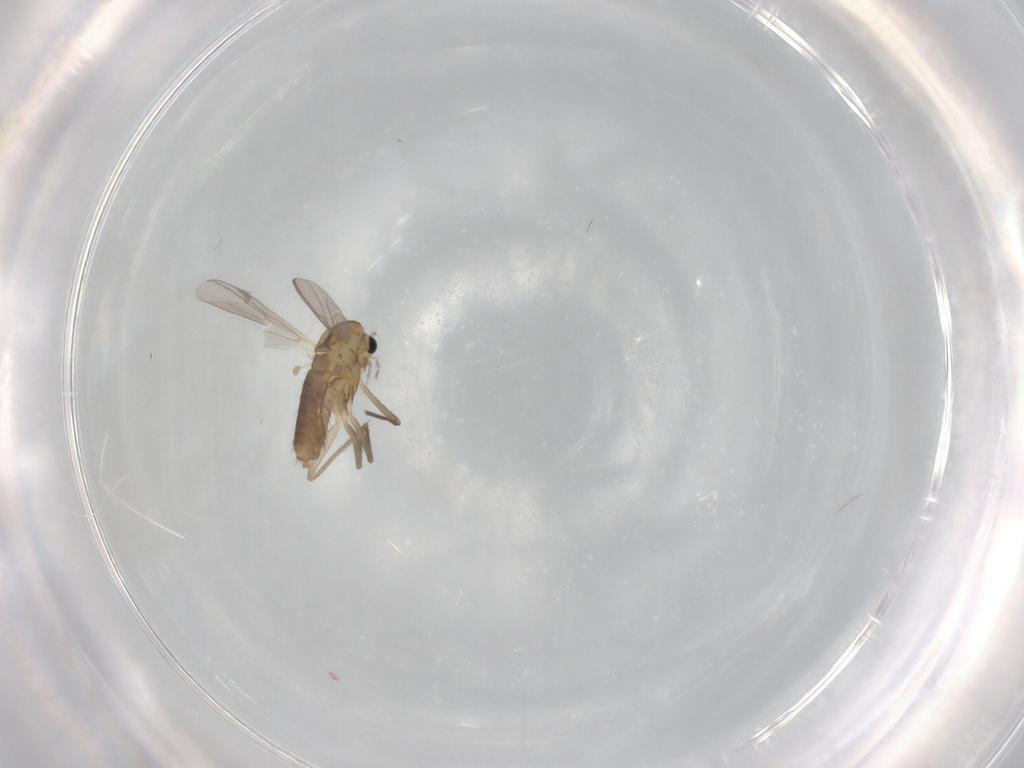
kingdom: Animalia
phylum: Arthropoda
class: Insecta
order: Diptera
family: Chironomidae
